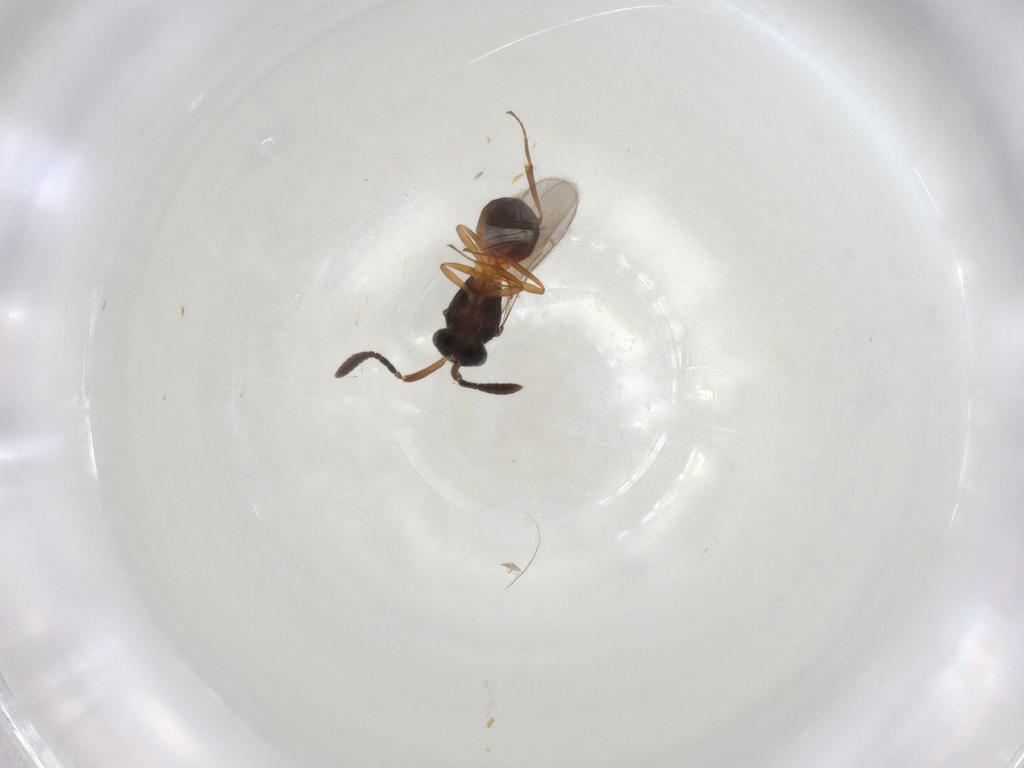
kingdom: Animalia
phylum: Arthropoda
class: Insecta
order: Hymenoptera
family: Scelionidae
